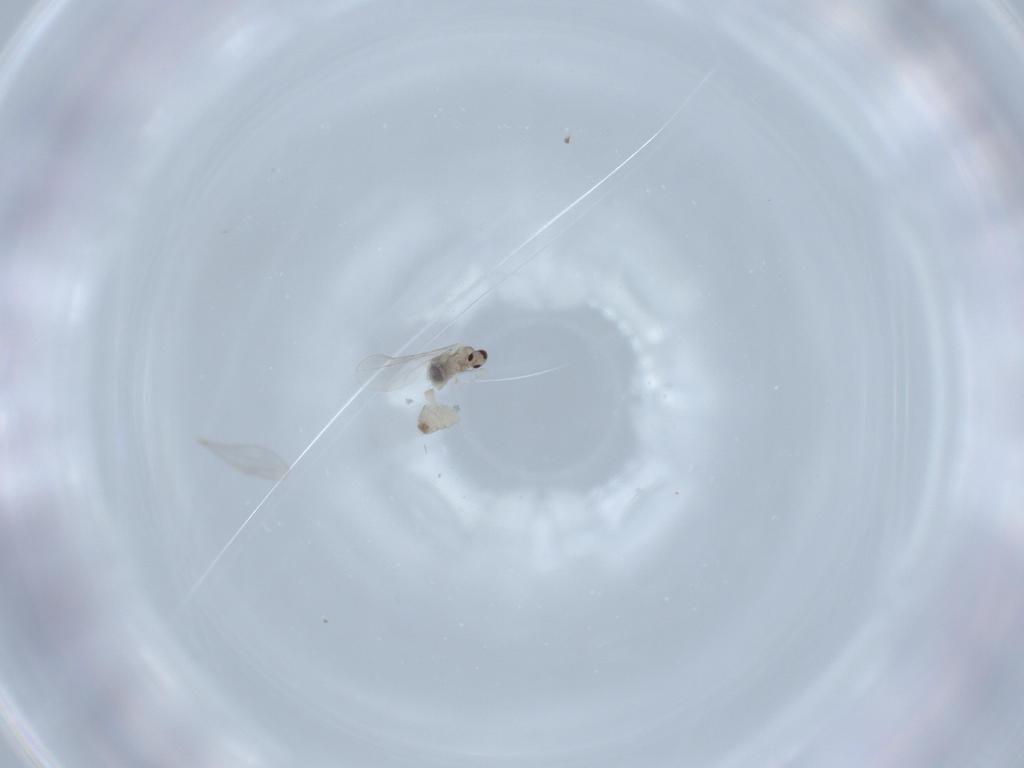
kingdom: Animalia
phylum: Arthropoda
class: Insecta
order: Diptera
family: Cecidomyiidae
